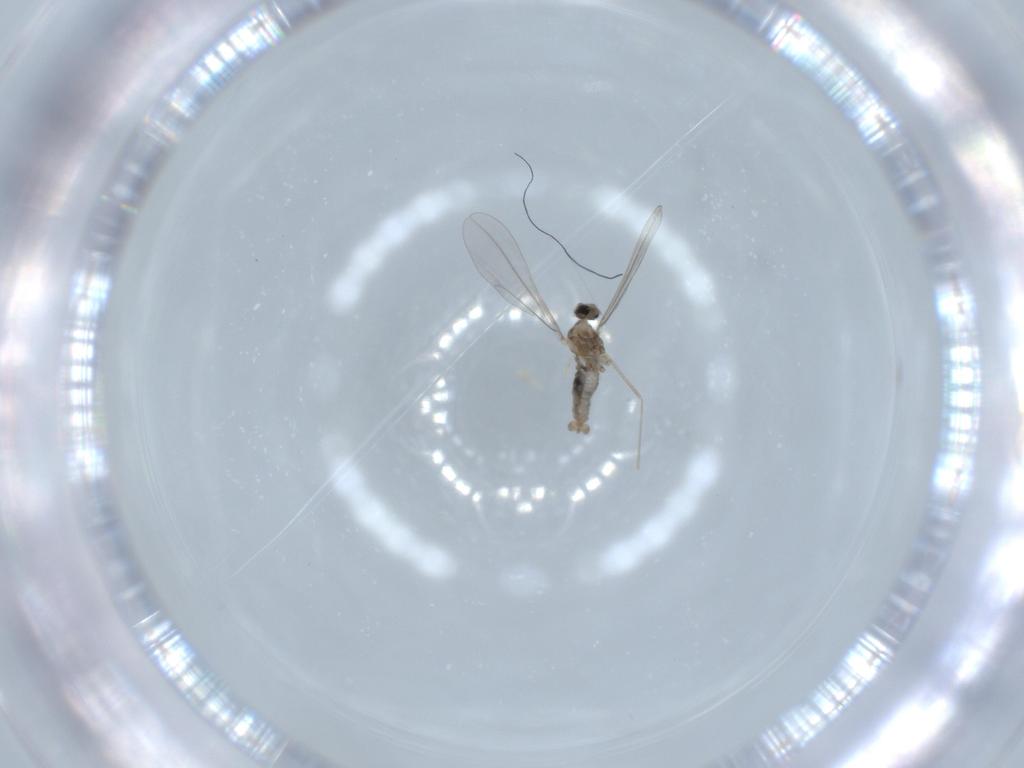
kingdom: Animalia
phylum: Arthropoda
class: Insecta
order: Diptera
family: Cecidomyiidae
